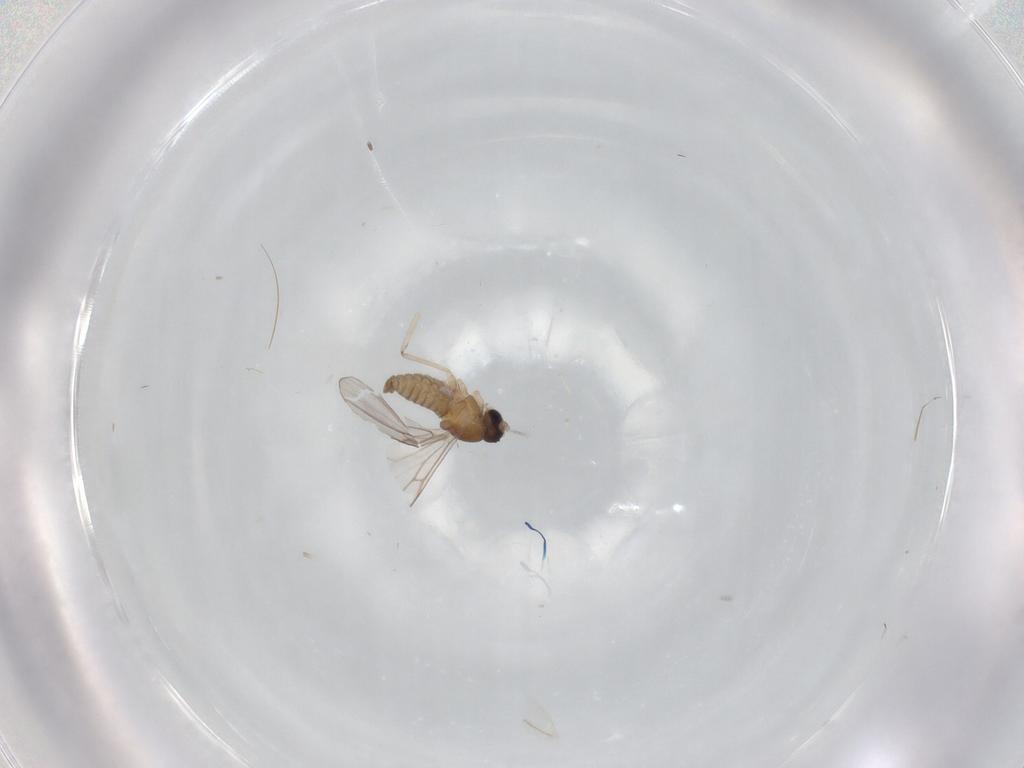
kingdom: Animalia
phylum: Arthropoda
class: Insecta
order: Diptera
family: Cecidomyiidae
